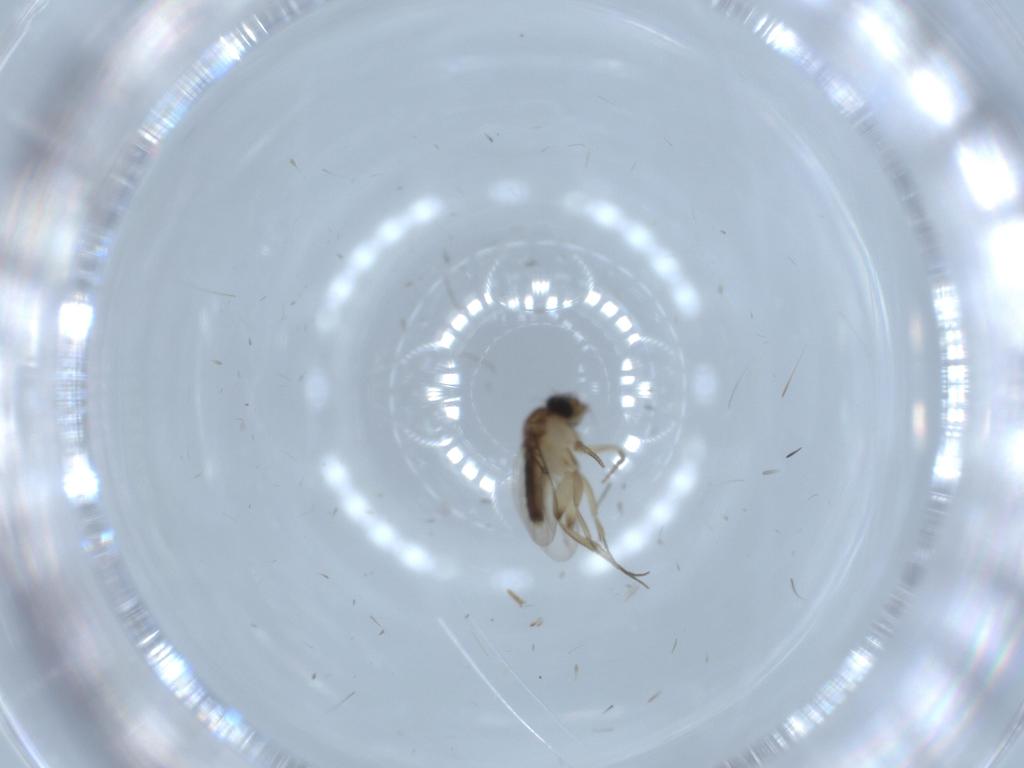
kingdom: Animalia
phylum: Arthropoda
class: Insecta
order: Diptera
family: Phoridae
